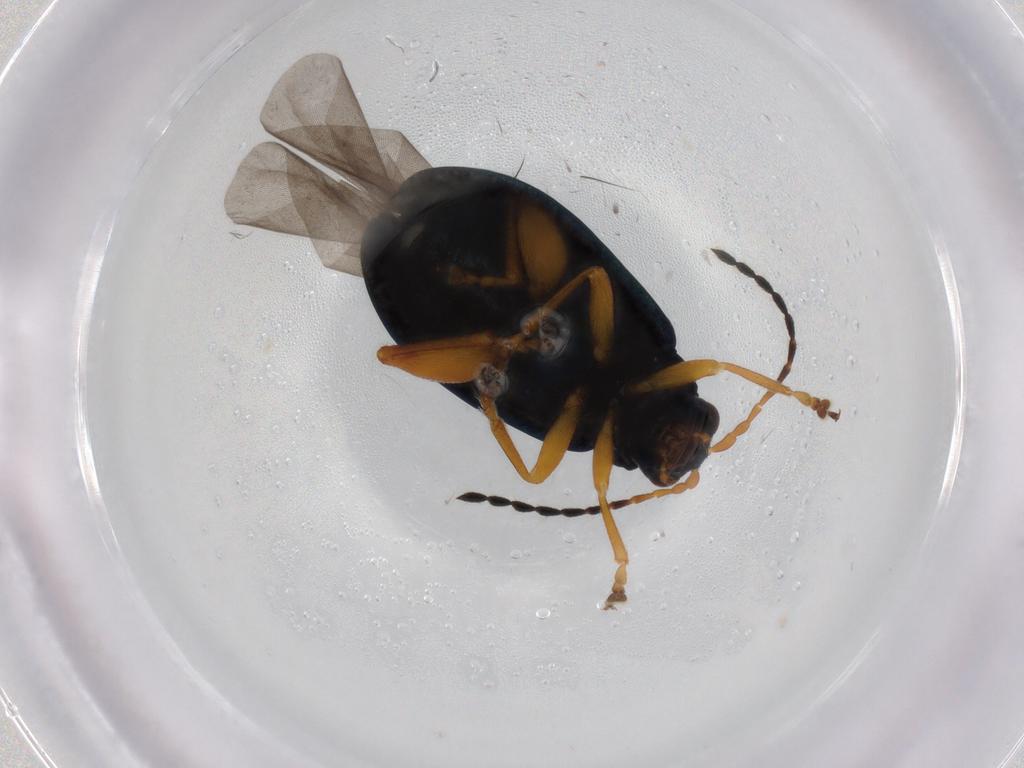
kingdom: Animalia
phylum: Arthropoda
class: Insecta
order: Coleoptera
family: Chrysomelidae
